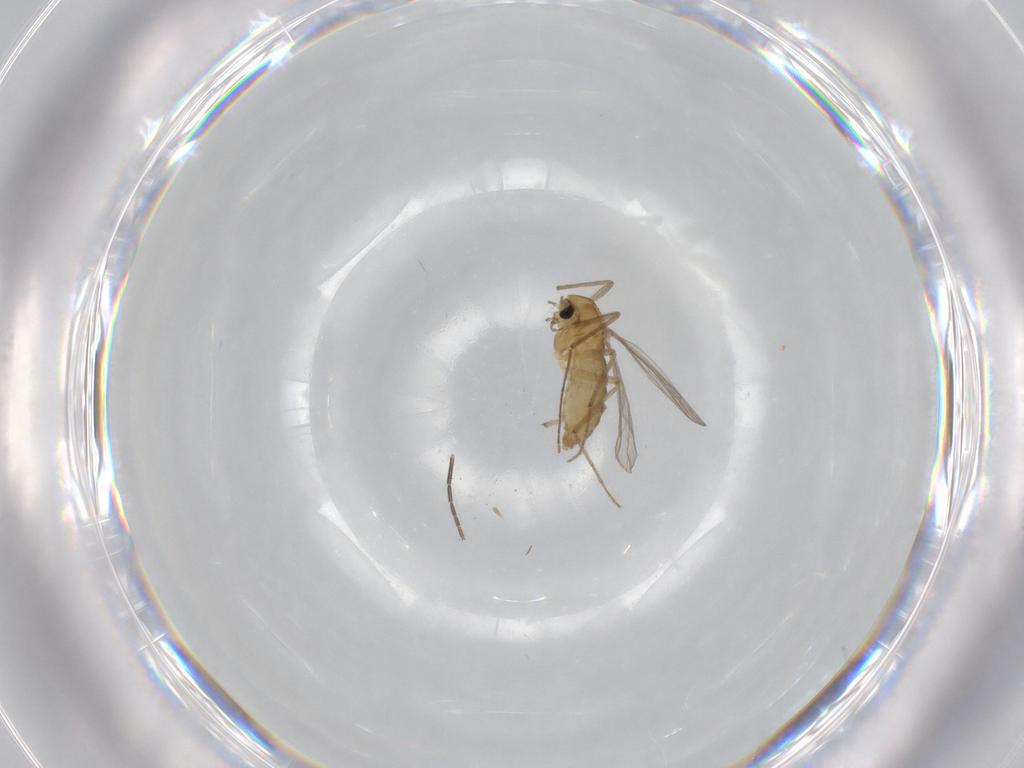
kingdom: Animalia
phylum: Arthropoda
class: Insecta
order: Diptera
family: Chironomidae
